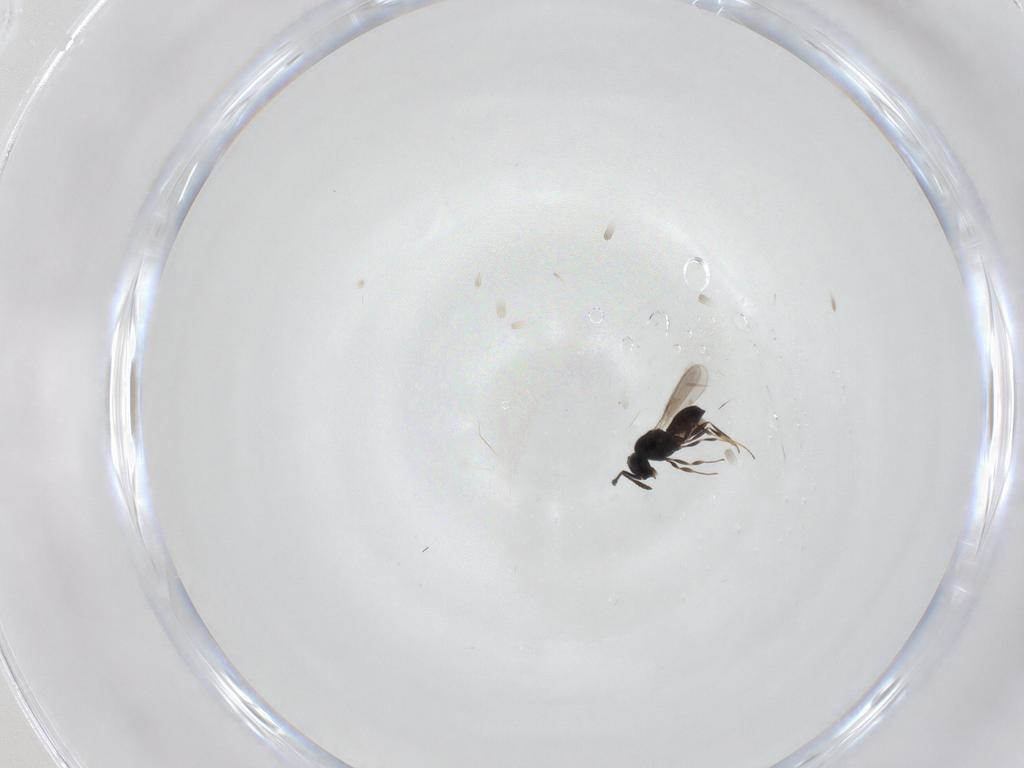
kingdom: Animalia
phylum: Arthropoda
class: Insecta
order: Hymenoptera
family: Scelionidae
